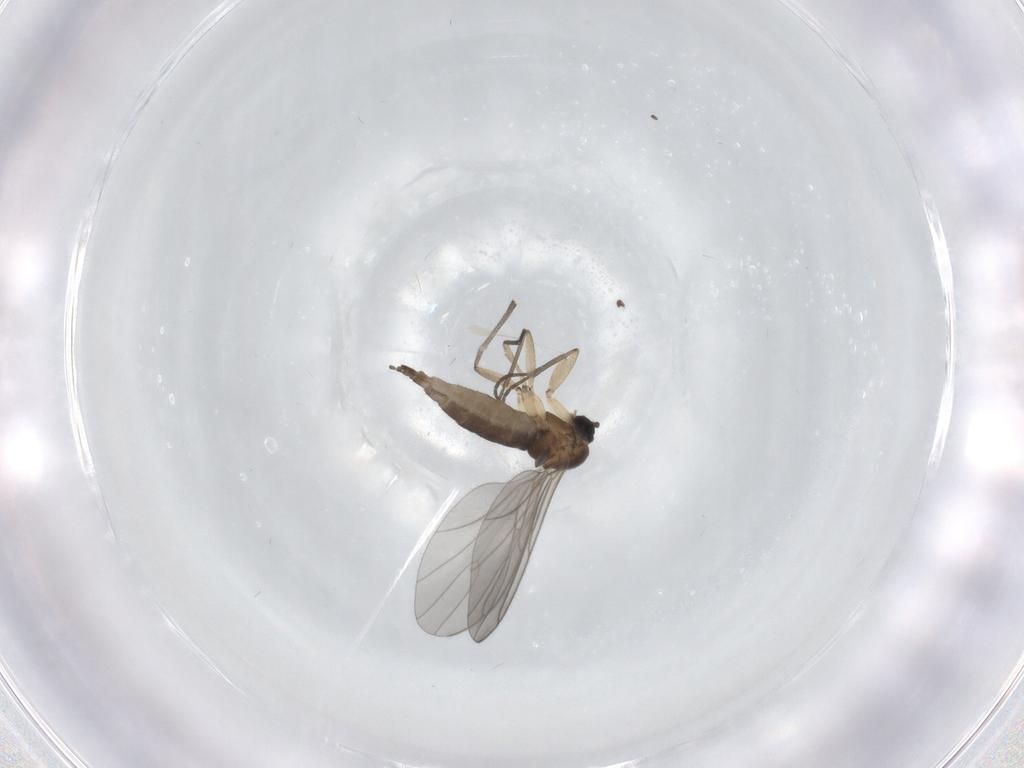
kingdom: Animalia
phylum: Arthropoda
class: Insecta
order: Diptera
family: Sciaridae
